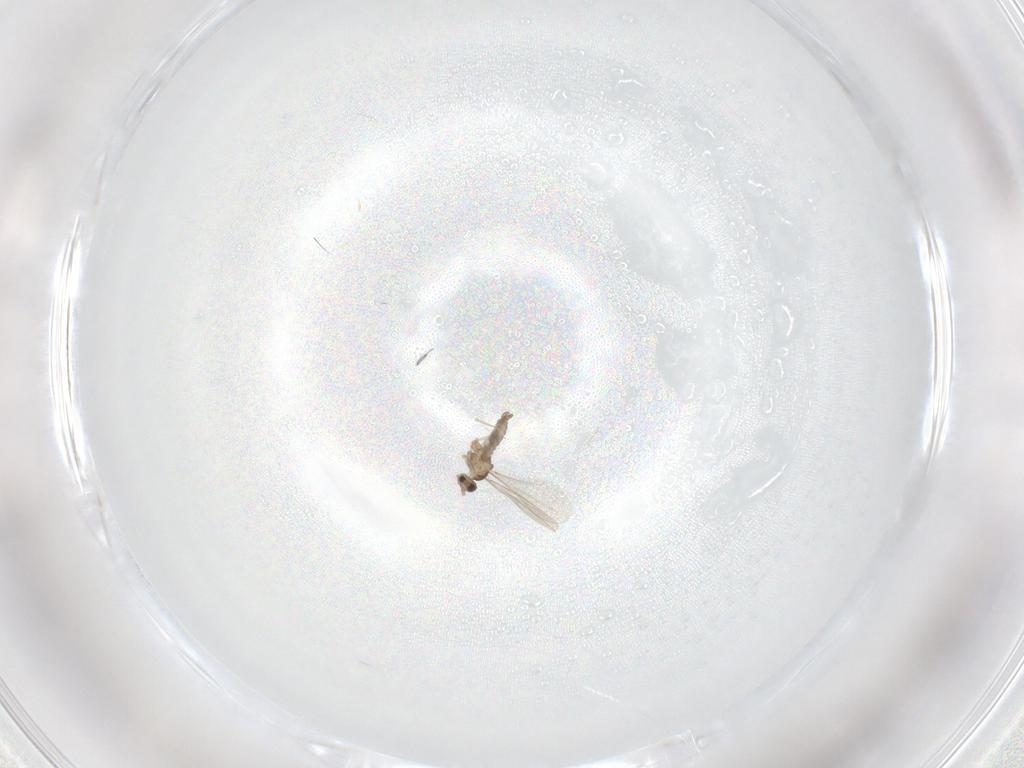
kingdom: Animalia
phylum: Arthropoda
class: Insecta
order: Diptera
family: Cecidomyiidae
